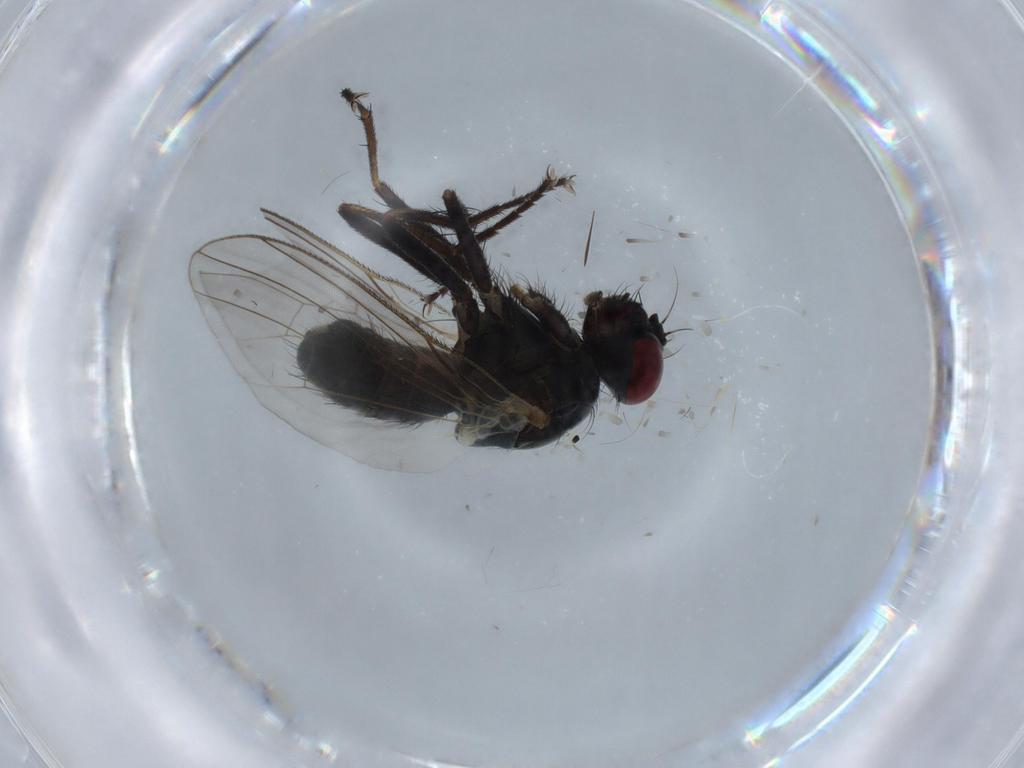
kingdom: Animalia
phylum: Arthropoda
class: Insecta
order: Diptera
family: Muscidae
